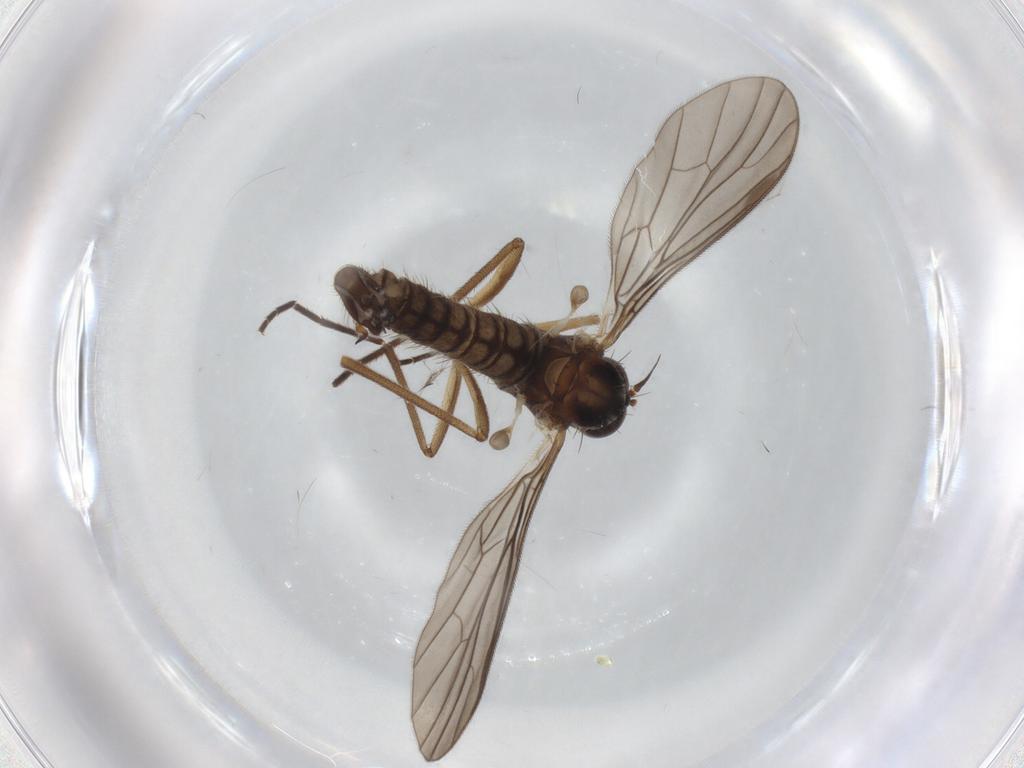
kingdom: Animalia
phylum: Arthropoda
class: Insecta
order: Diptera
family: Hybotidae
